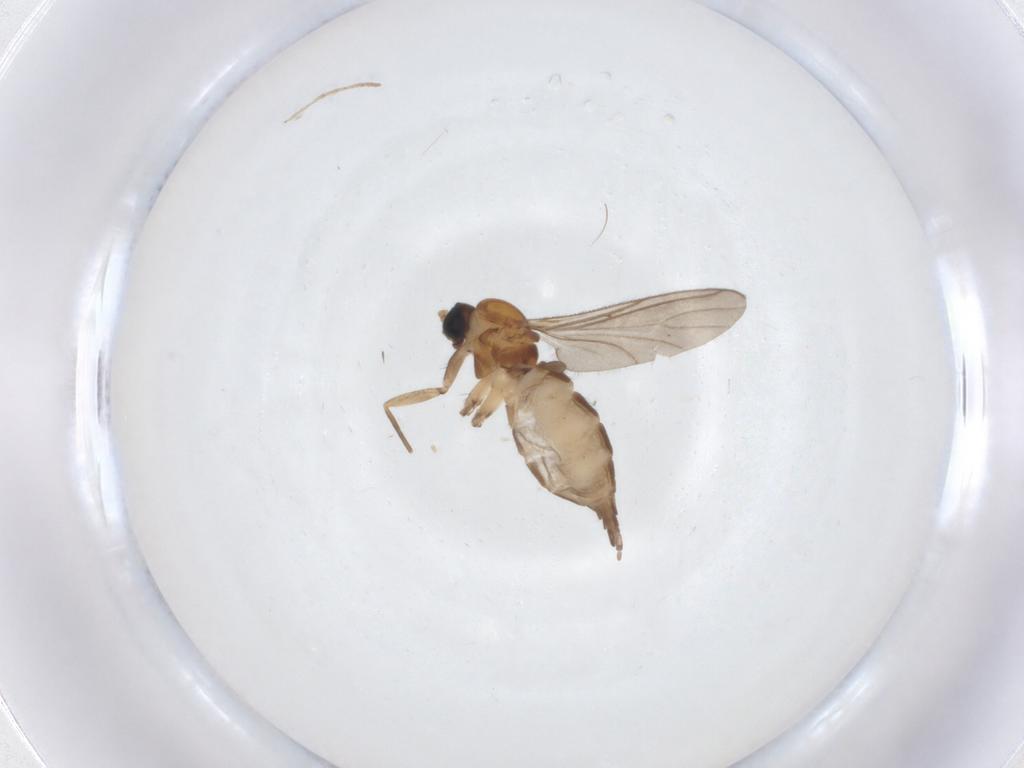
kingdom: Animalia
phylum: Arthropoda
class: Insecta
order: Diptera
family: Sciaridae
